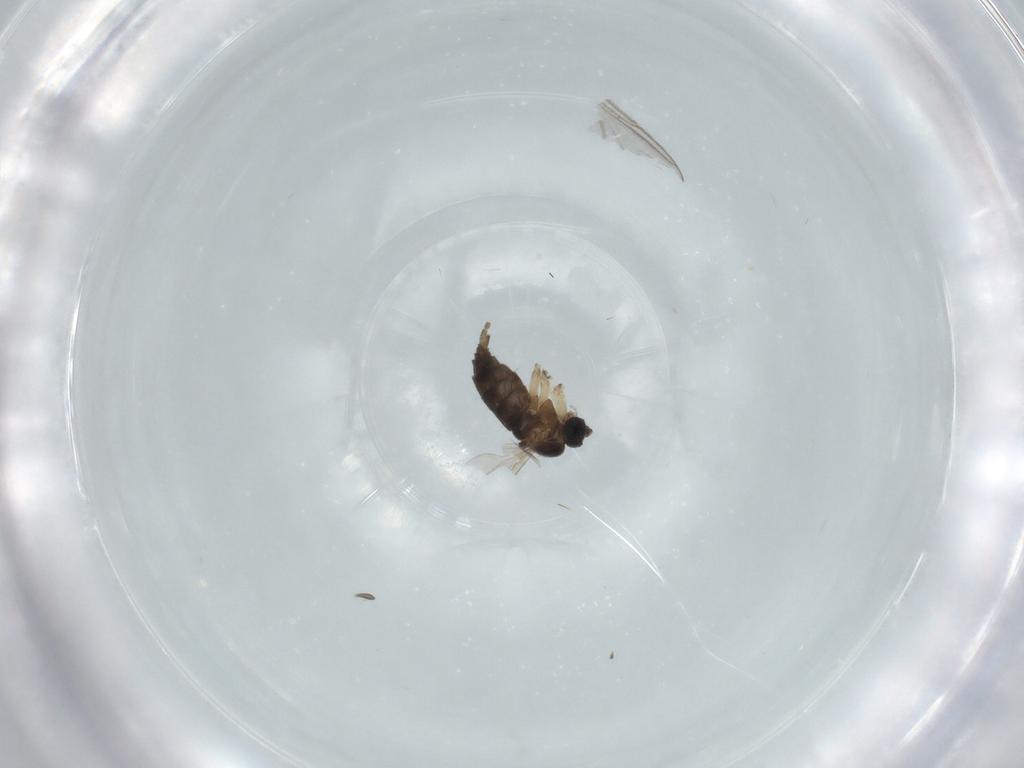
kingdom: Animalia
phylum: Arthropoda
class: Insecta
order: Diptera
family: Sciaridae
